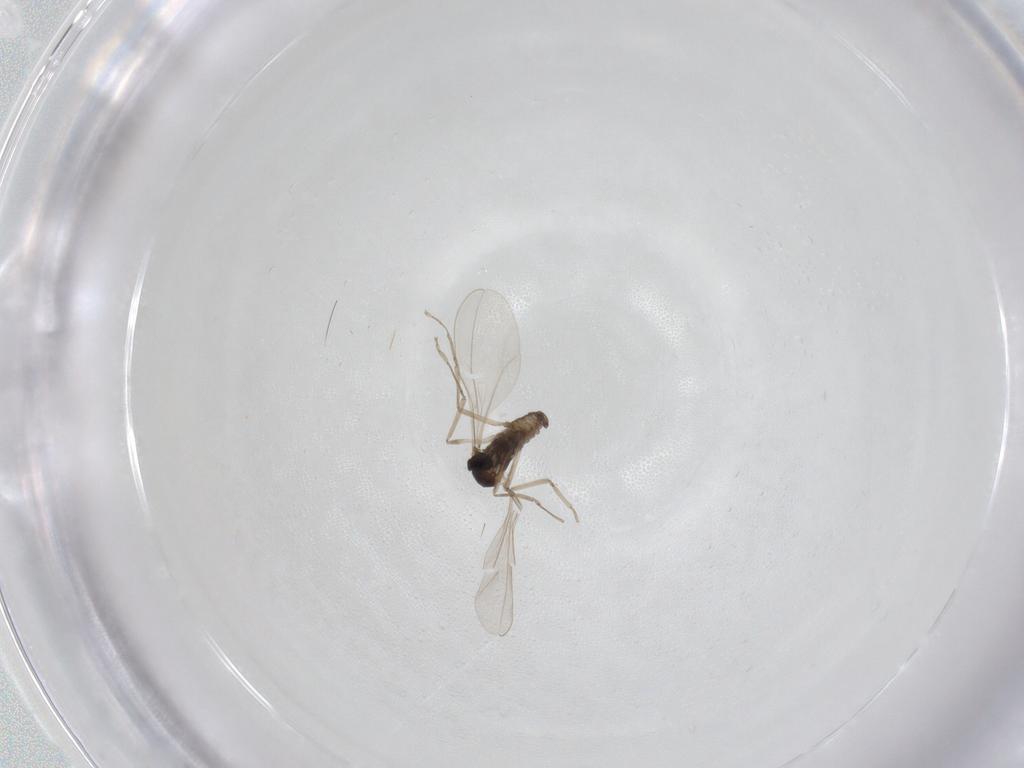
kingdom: Animalia
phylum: Arthropoda
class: Insecta
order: Diptera
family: Cecidomyiidae
